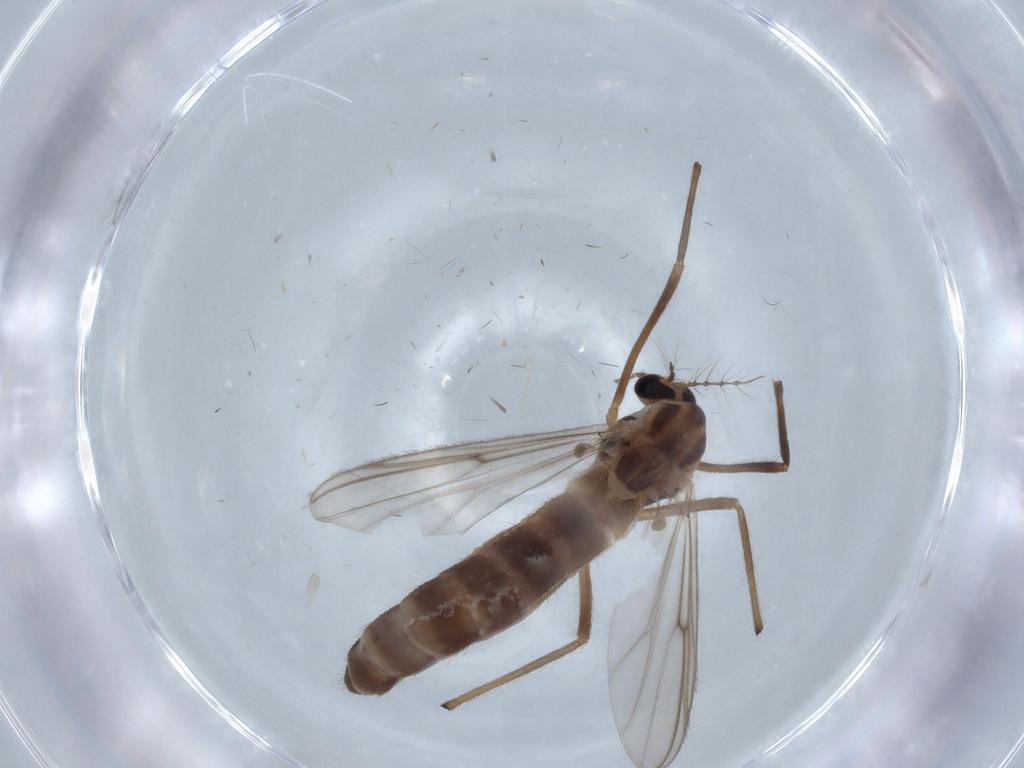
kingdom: Animalia
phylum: Arthropoda
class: Insecta
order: Diptera
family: Chironomidae
